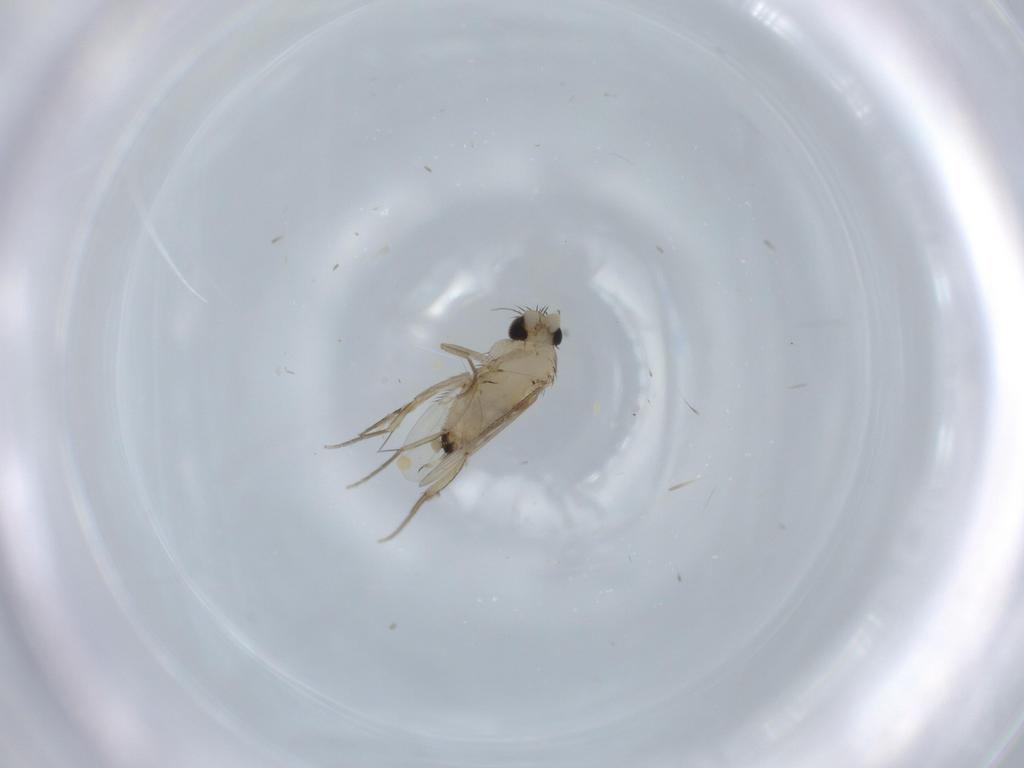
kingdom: Animalia
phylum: Arthropoda
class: Insecta
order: Diptera
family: Phoridae
